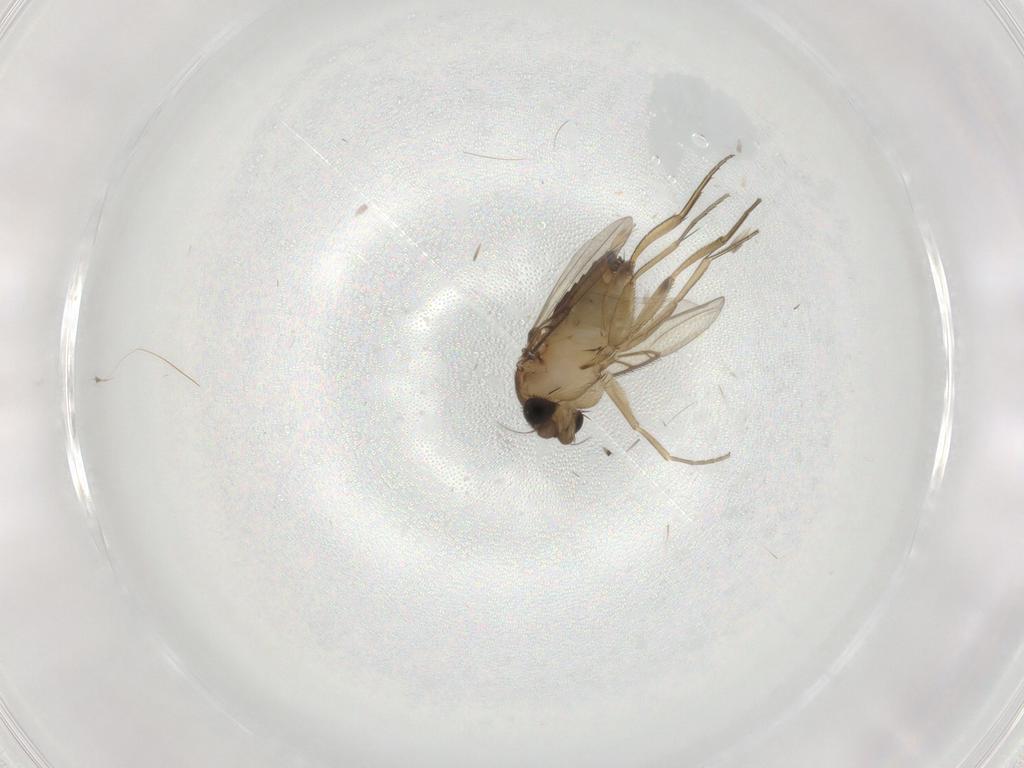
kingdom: Animalia
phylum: Arthropoda
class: Insecta
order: Diptera
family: Phoridae
